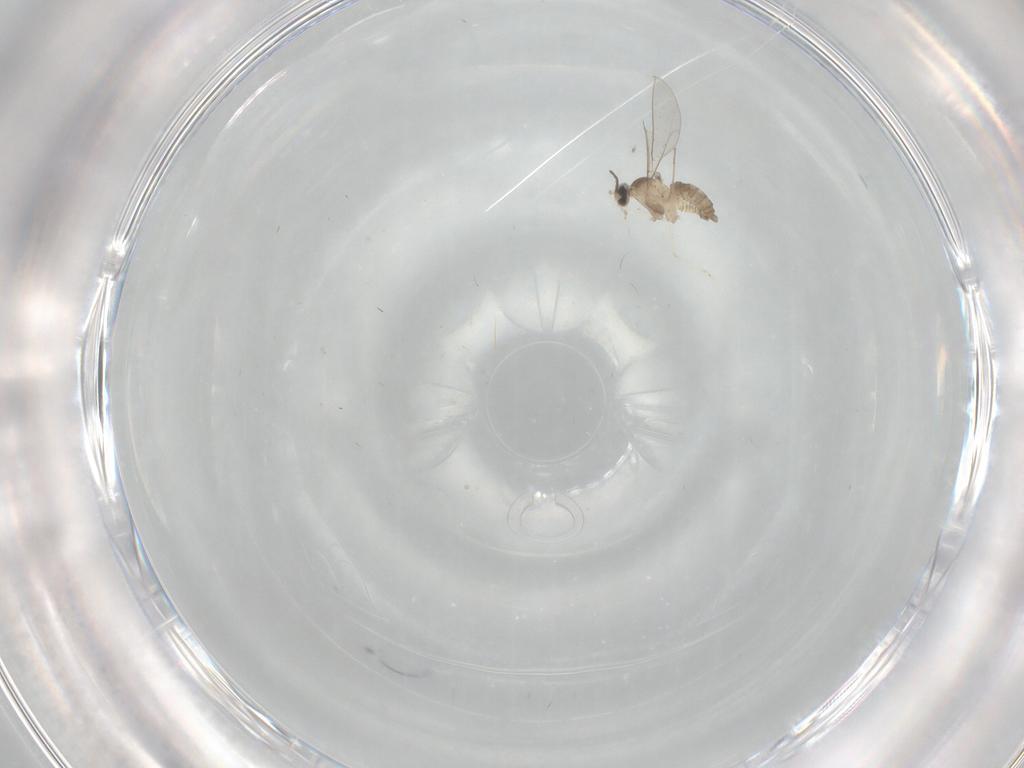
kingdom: Animalia
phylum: Arthropoda
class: Insecta
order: Diptera
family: Cecidomyiidae
